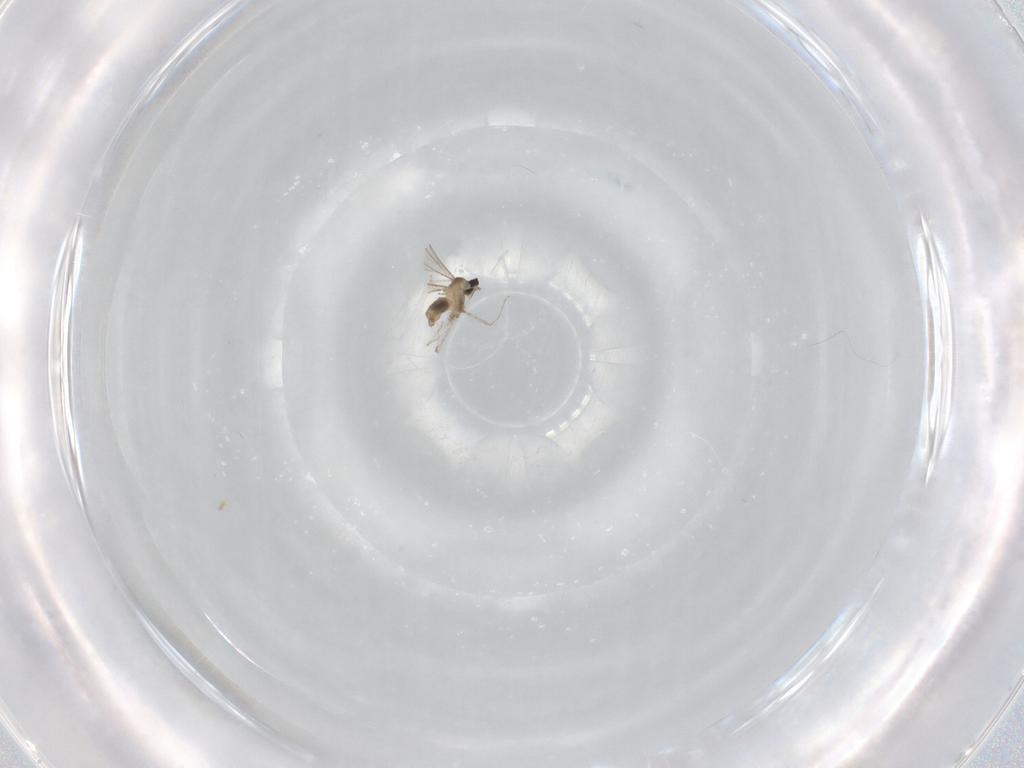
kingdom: Animalia
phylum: Arthropoda
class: Insecta
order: Diptera
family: Cecidomyiidae
